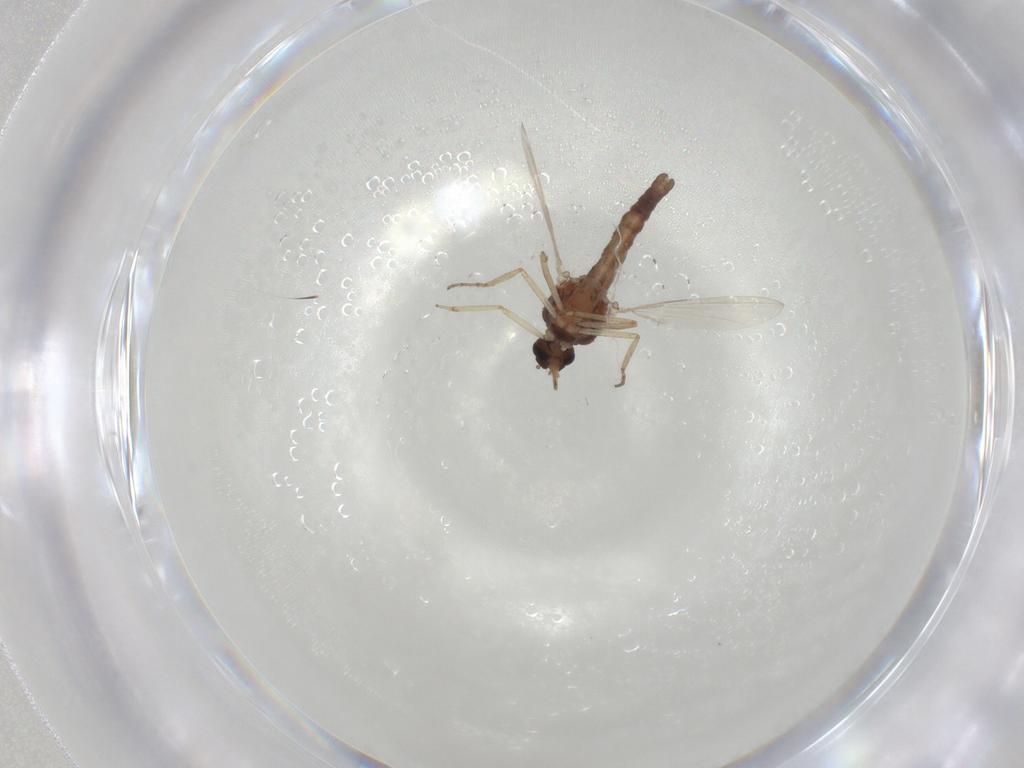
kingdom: Animalia
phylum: Arthropoda
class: Insecta
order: Diptera
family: Ceratopogonidae
